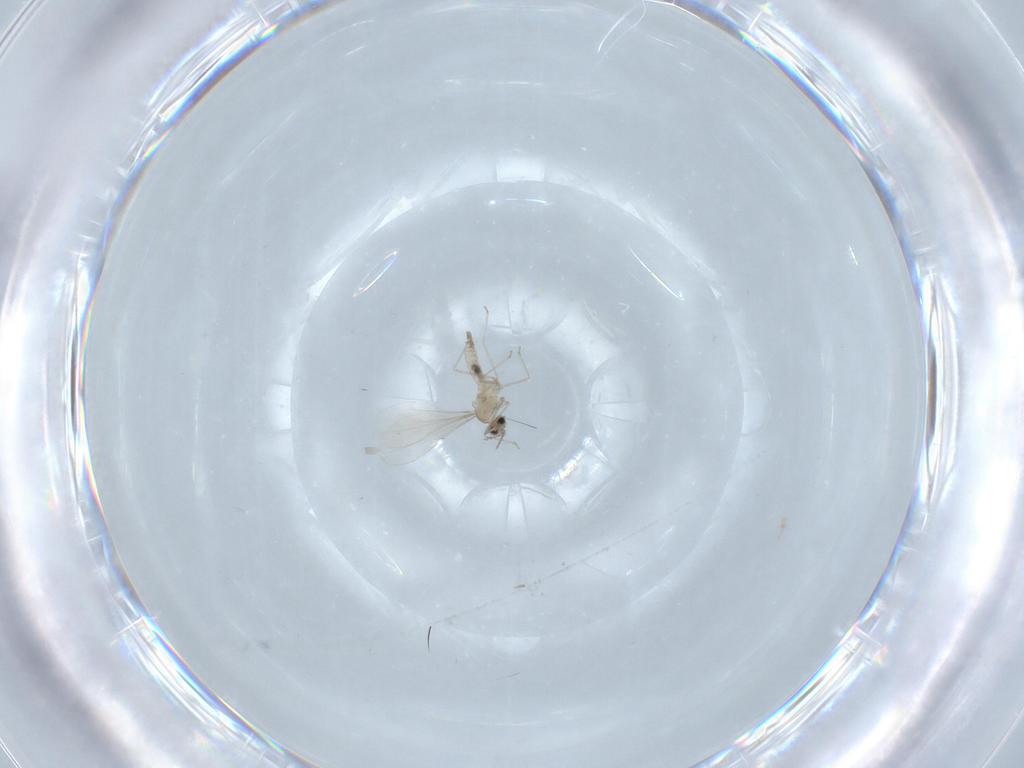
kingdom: Animalia
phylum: Arthropoda
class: Insecta
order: Diptera
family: Cecidomyiidae
